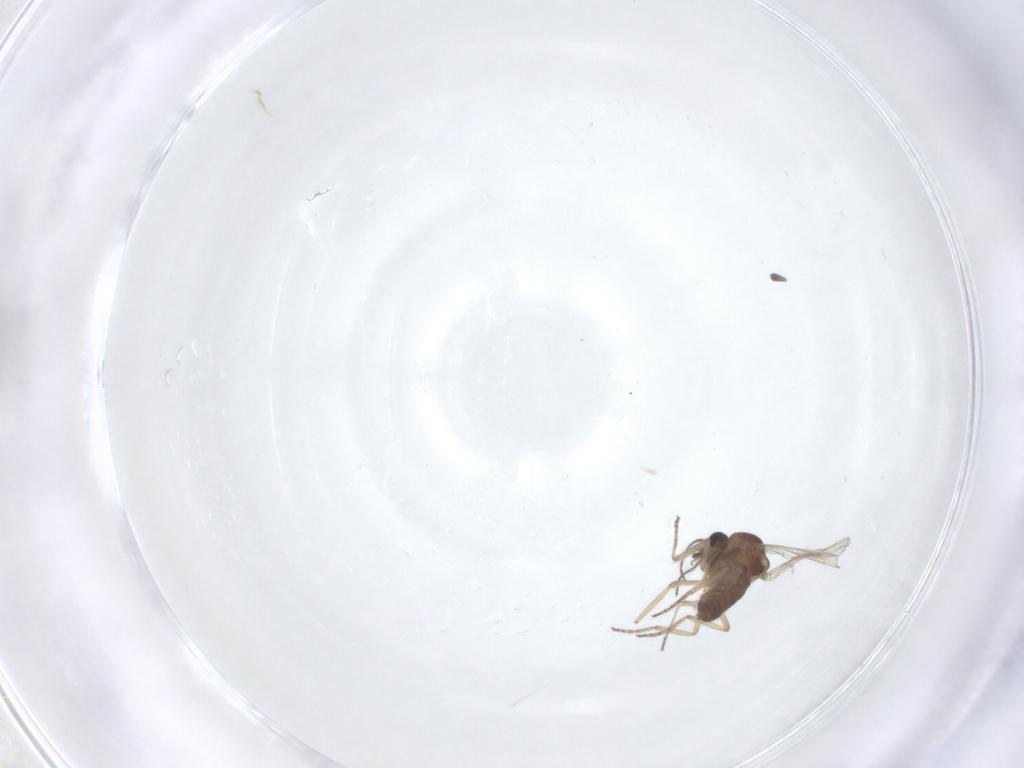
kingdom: Animalia
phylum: Arthropoda
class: Insecta
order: Diptera
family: Ceratopogonidae
